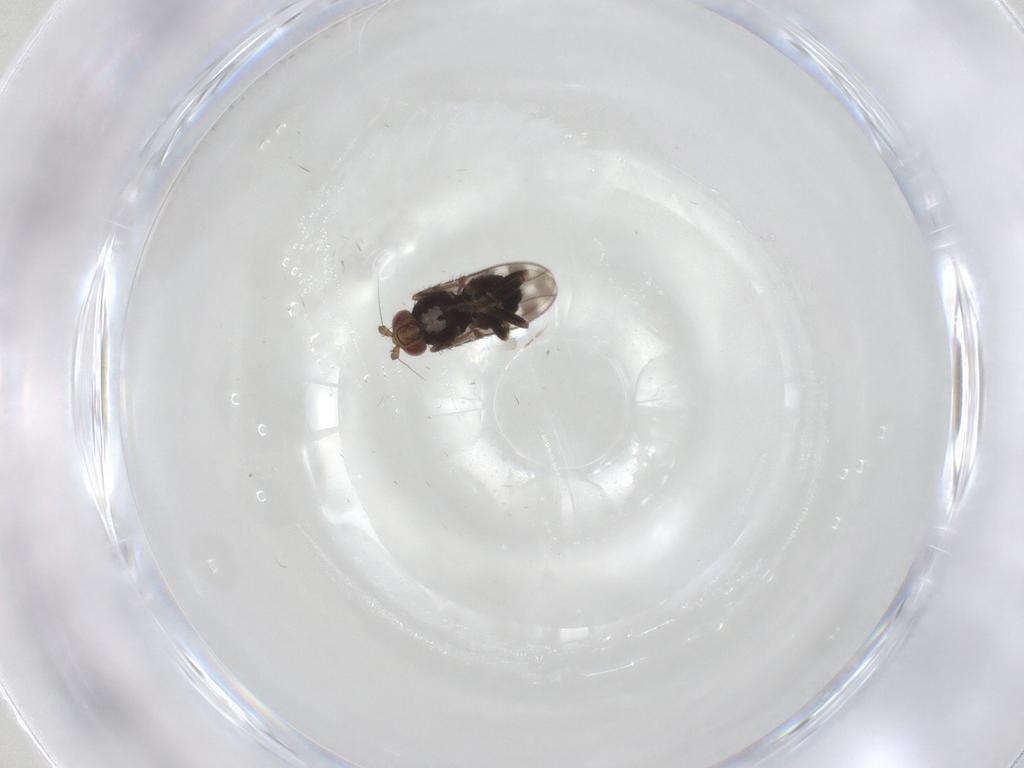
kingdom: Animalia
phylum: Arthropoda
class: Insecta
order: Diptera
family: Sphaeroceridae
